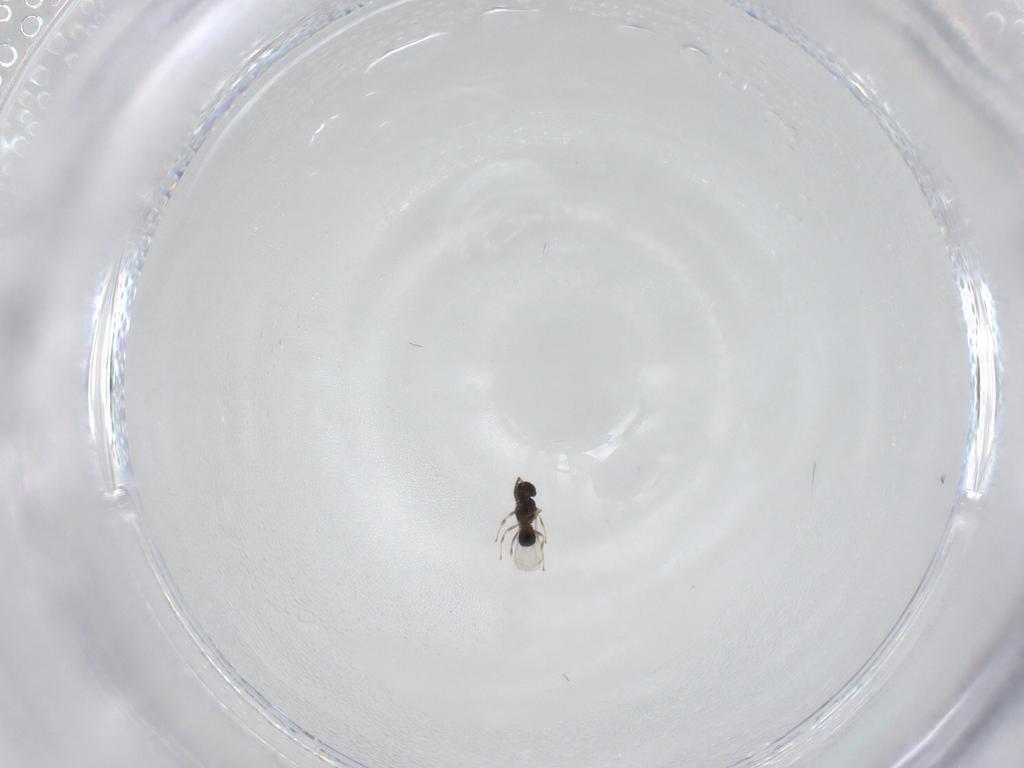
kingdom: Animalia
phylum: Arthropoda
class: Insecta
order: Hymenoptera
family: Scelionidae
